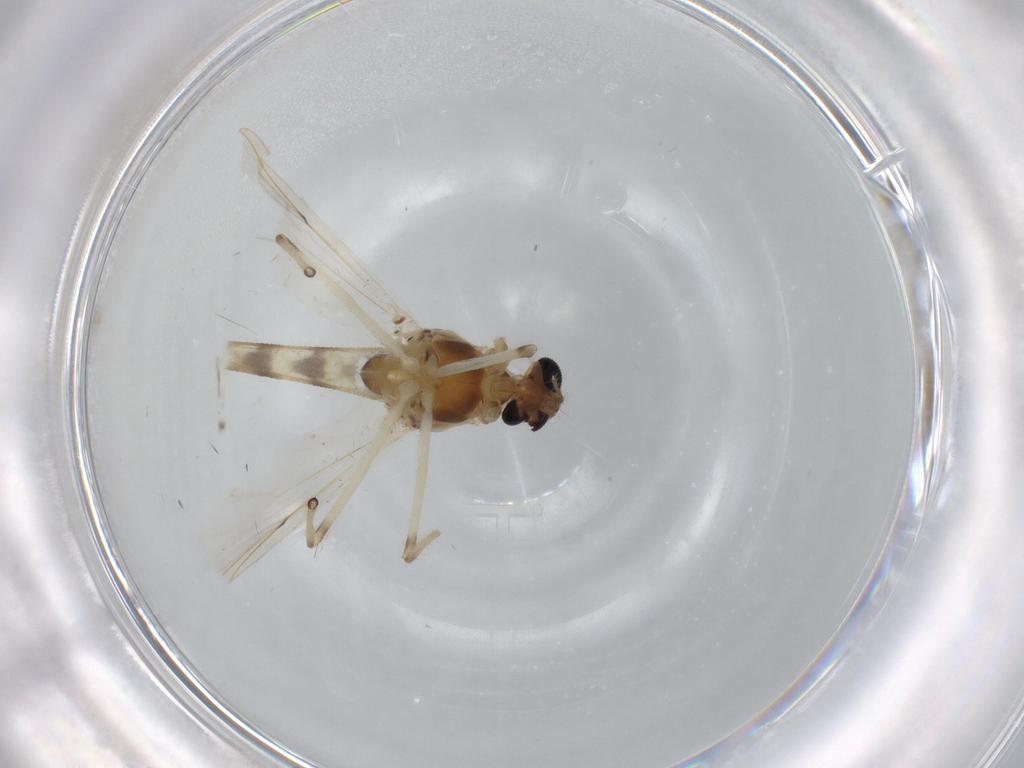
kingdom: Animalia
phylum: Arthropoda
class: Insecta
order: Diptera
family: Chironomidae
